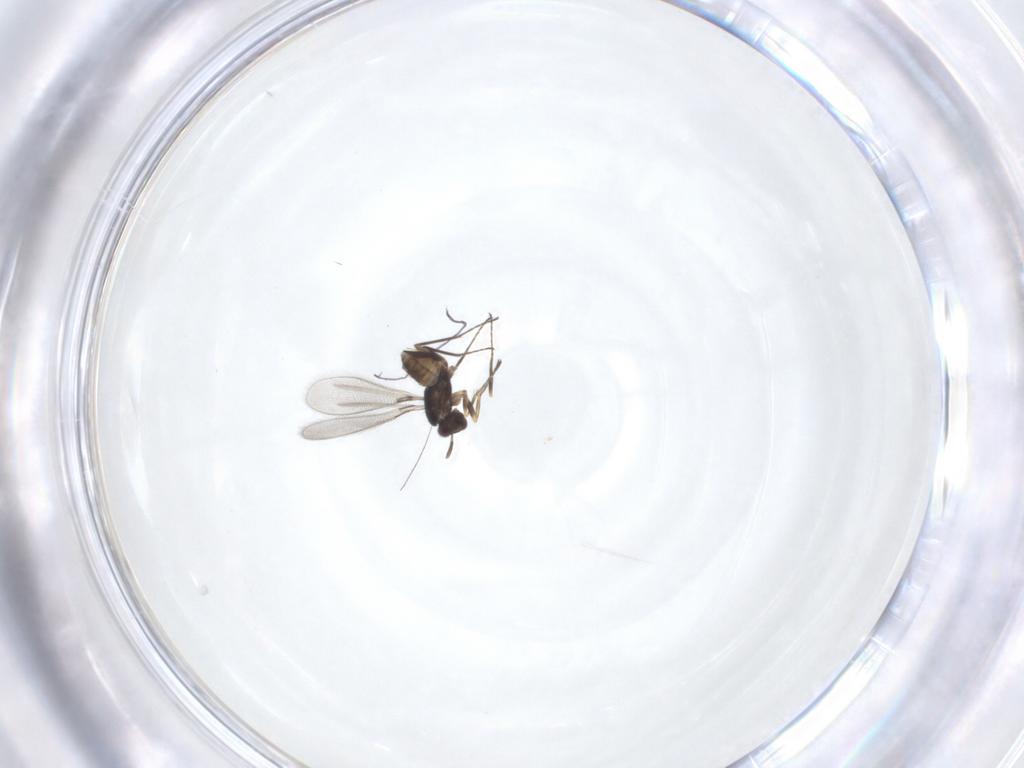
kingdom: Animalia
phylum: Arthropoda
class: Insecta
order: Hymenoptera
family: Mymaridae
